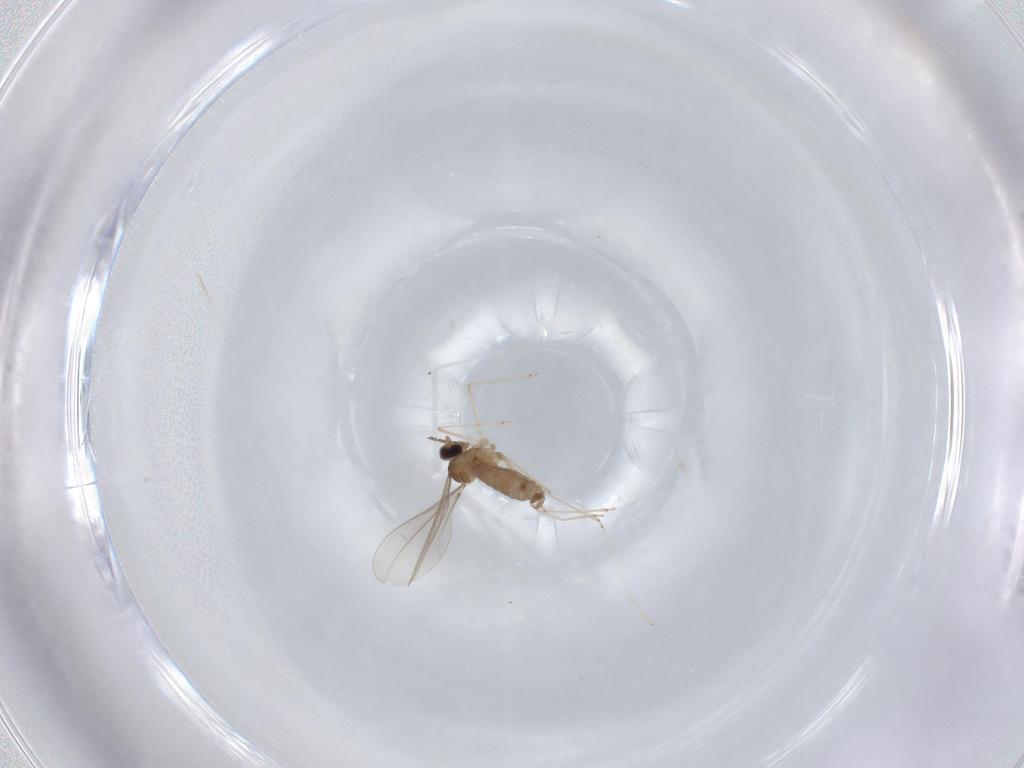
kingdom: Animalia
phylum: Arthropoda
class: Insecta
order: Diptera
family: Cecidomyiidae
